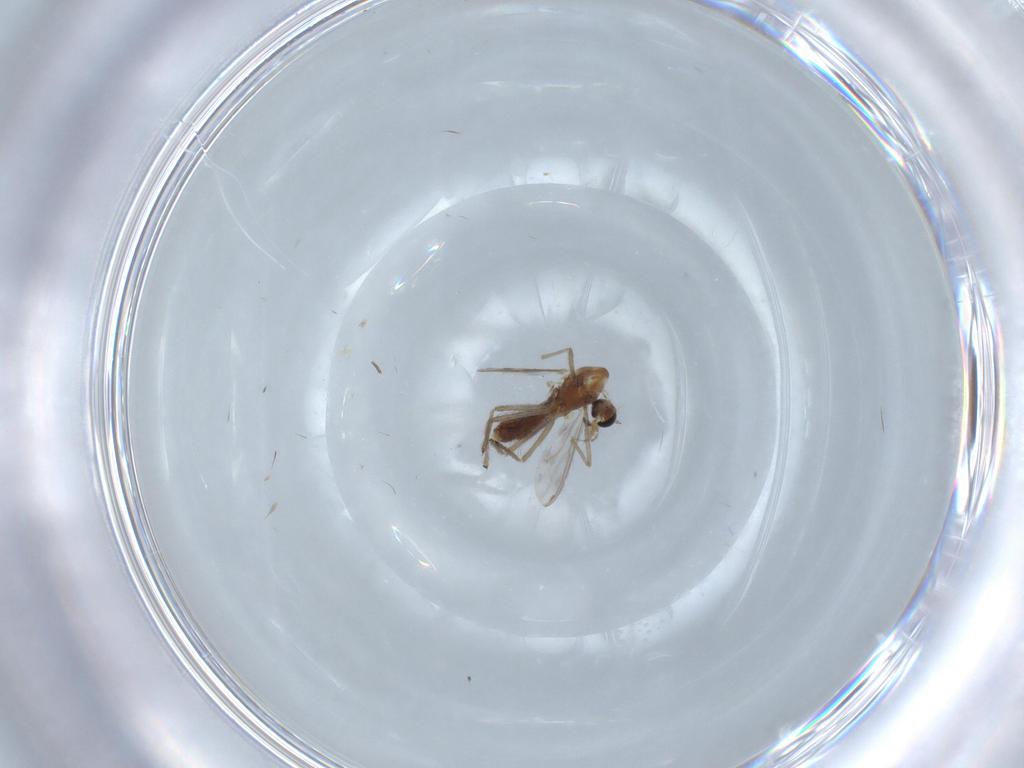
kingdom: Animalia
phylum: Arthropoda
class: Insecta
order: Diptera
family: Chironomidae
